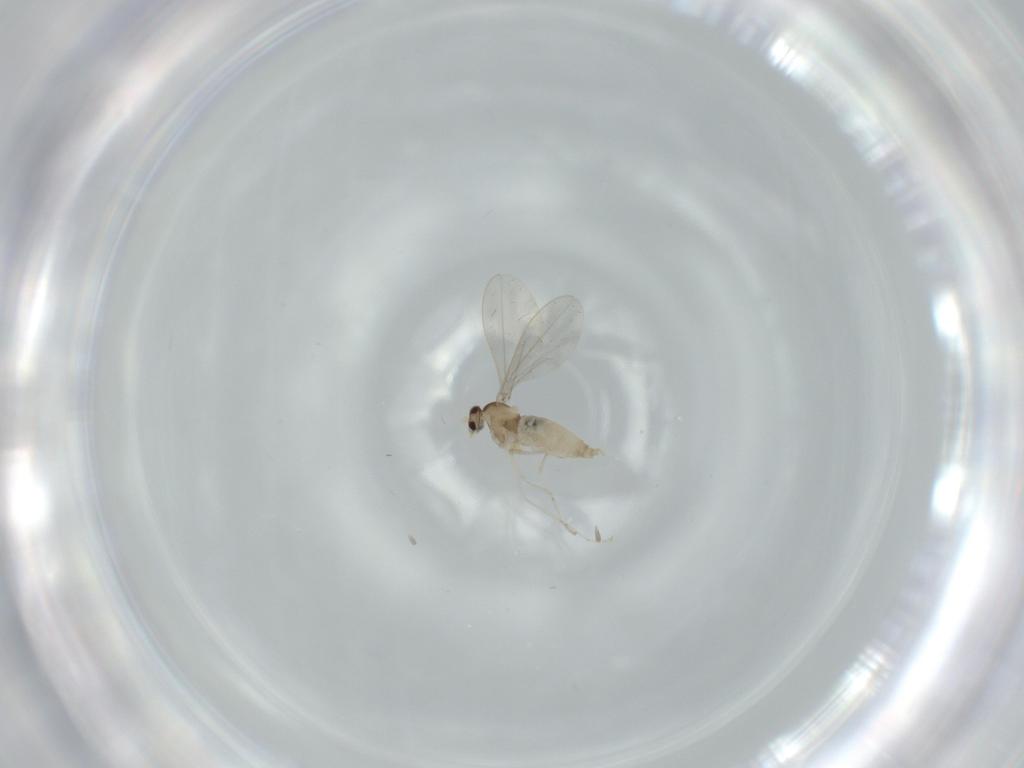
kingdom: Animalia
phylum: Arthropoda
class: Insecta
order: Diptera
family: Cecidomyiidae
